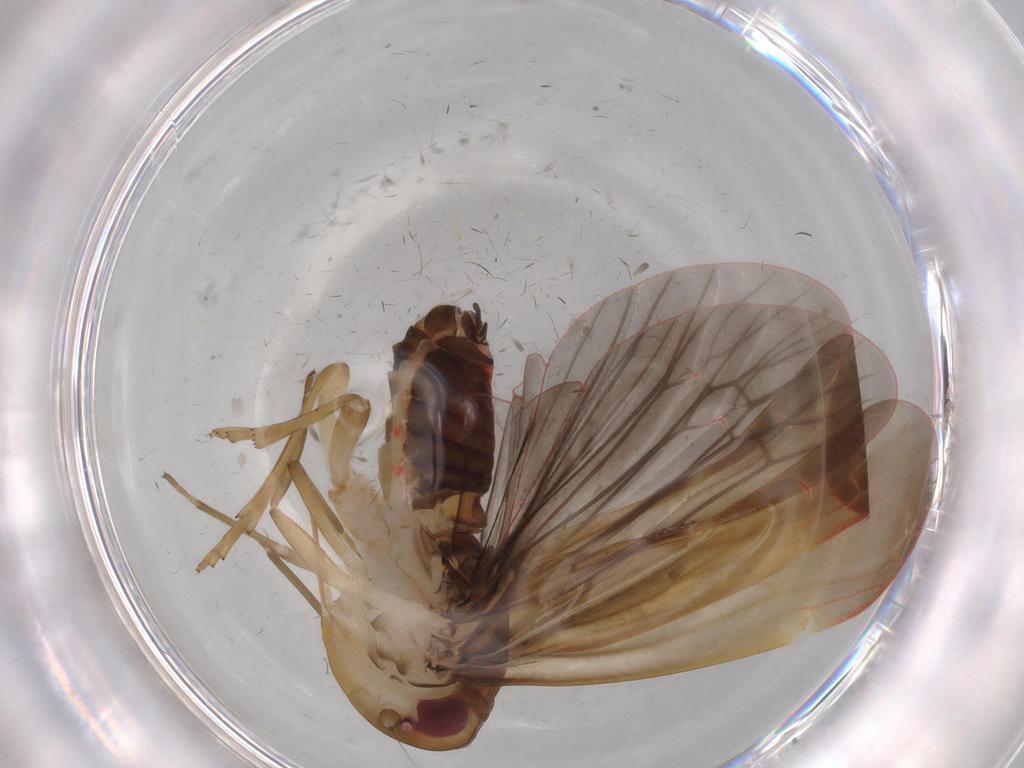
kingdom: Animalia
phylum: Arthropoda
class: Insecta
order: Hemiptera
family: Achilidae
